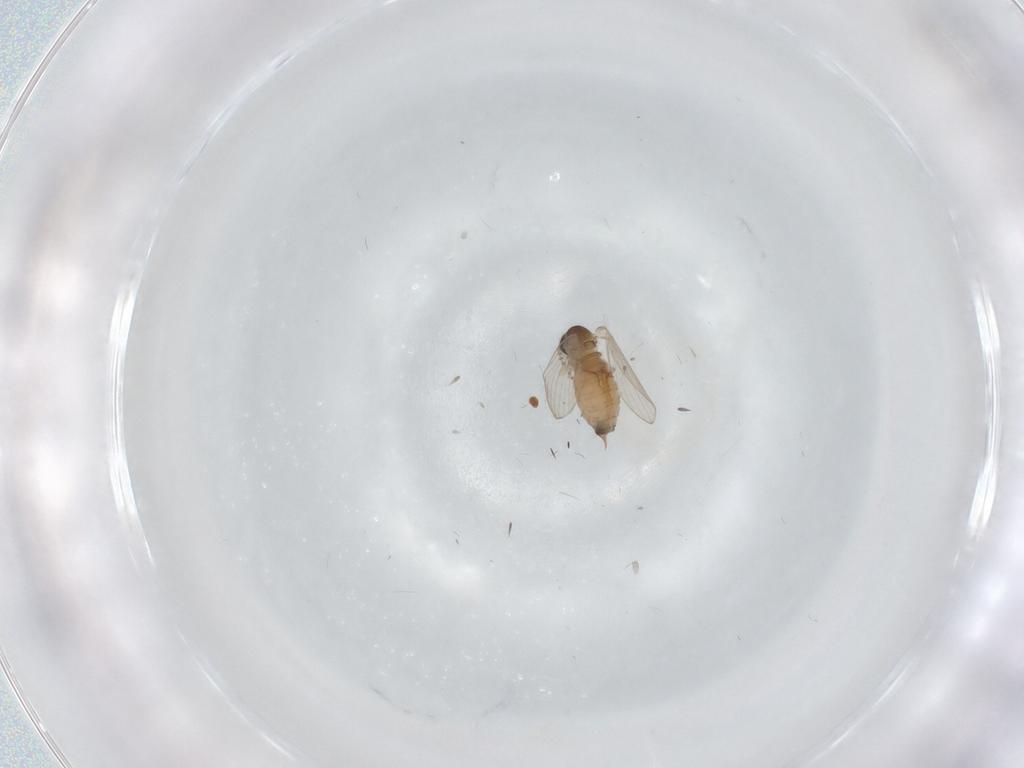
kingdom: Animalia
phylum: Arthropoda
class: Insecta
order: Diptera
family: Psychodidae
